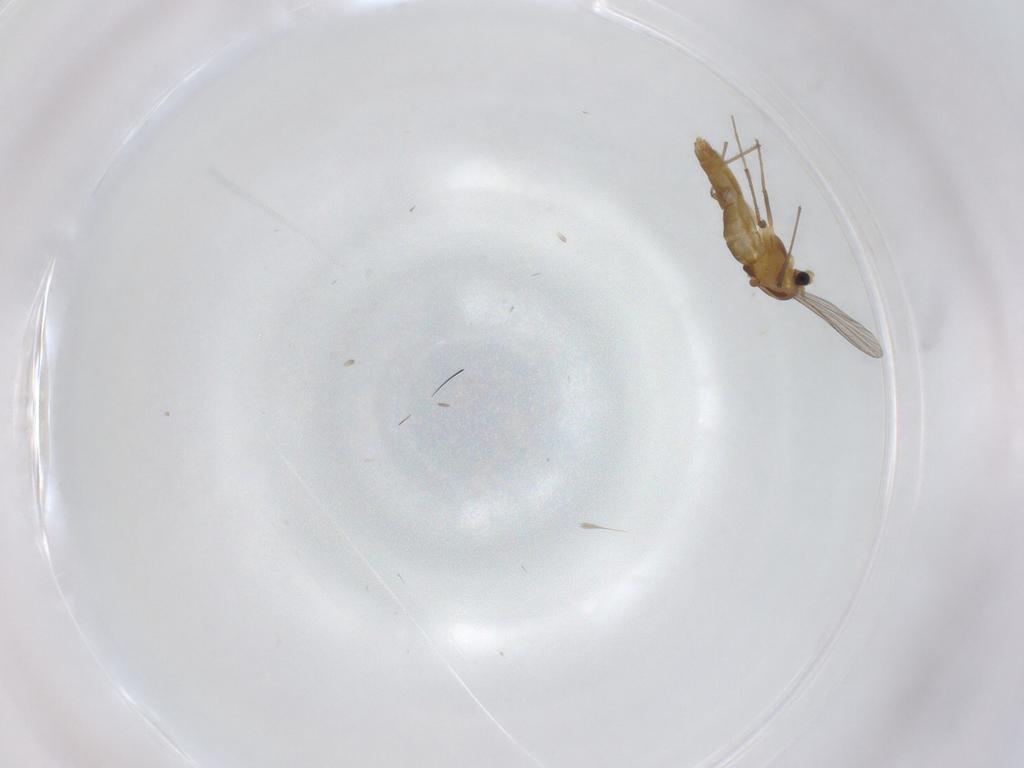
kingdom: Animalia
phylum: Arthropoda
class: Insecta
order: Diptera
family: Chironomidae
